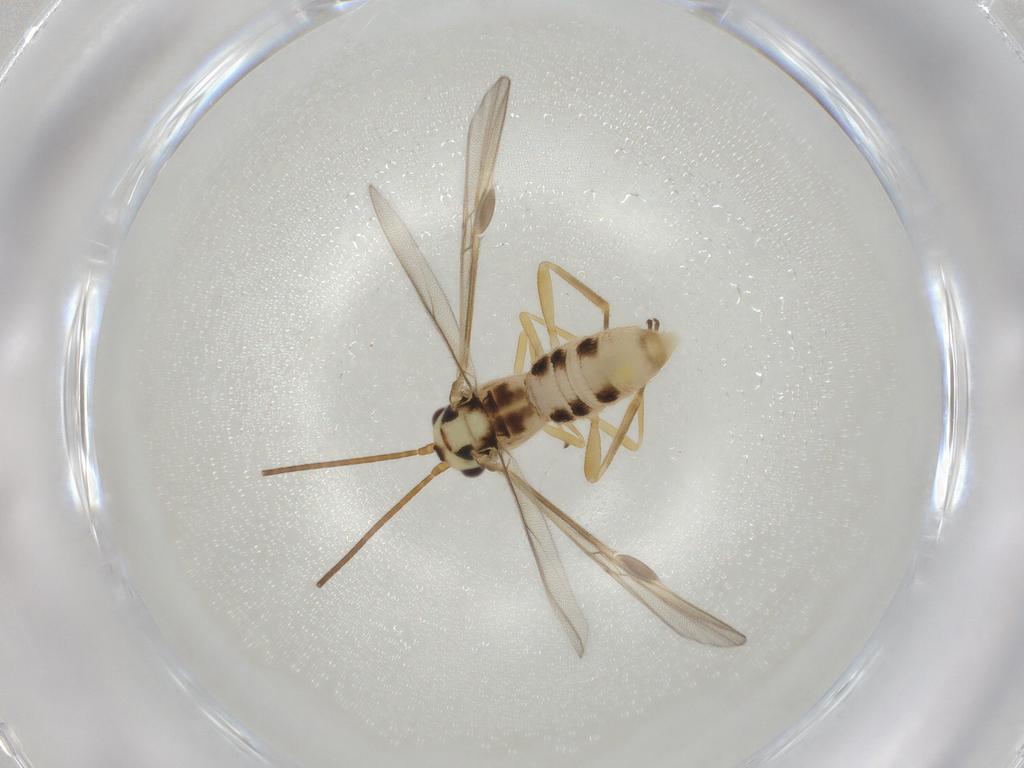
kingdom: Animalia
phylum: Arthropoda
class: Insecta
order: Hymenoptera
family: Braconidae
